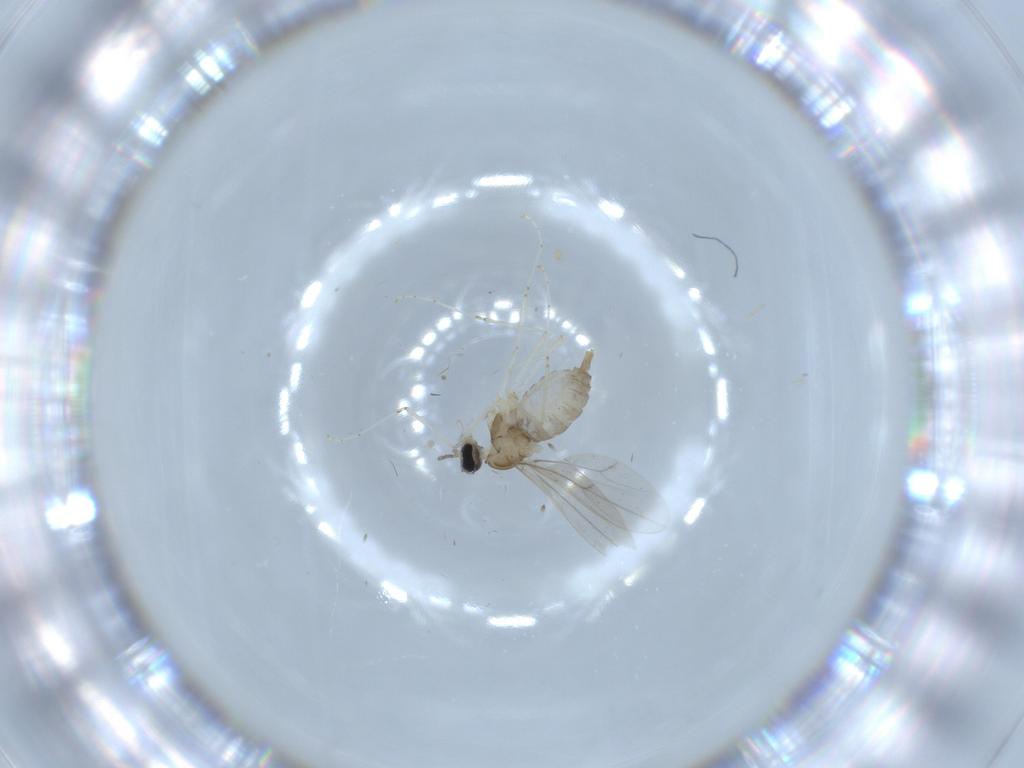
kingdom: Animalia
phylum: Arthropoda
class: Insecta
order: Diptera
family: Cecidomyiidae
